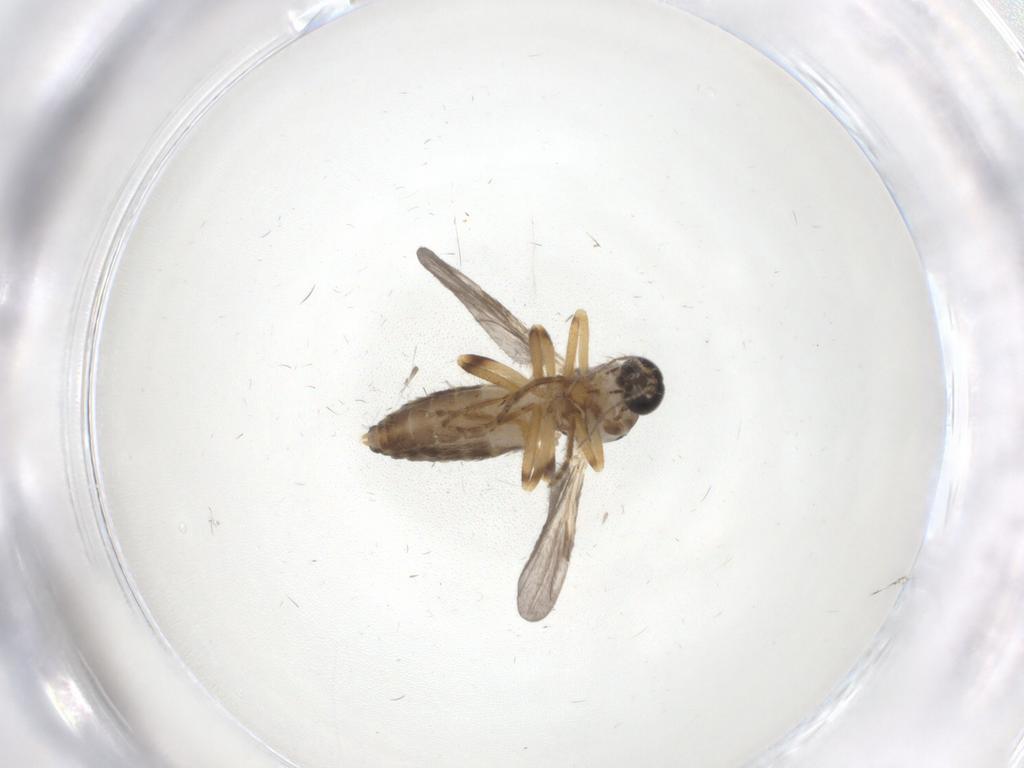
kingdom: Animalia
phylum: Arthropoda
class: Insecta
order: Diptera
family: Ceratopogonidae
